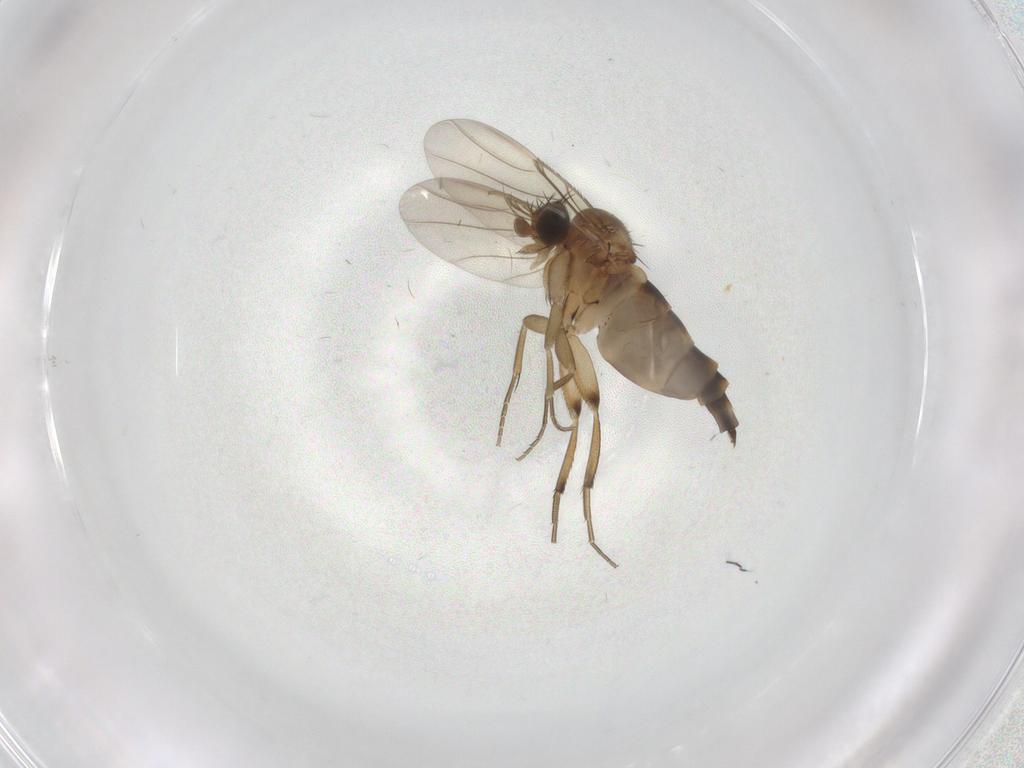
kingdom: Animalia
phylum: Arthropoda
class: Insecta
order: Diptera
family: Phoridae
